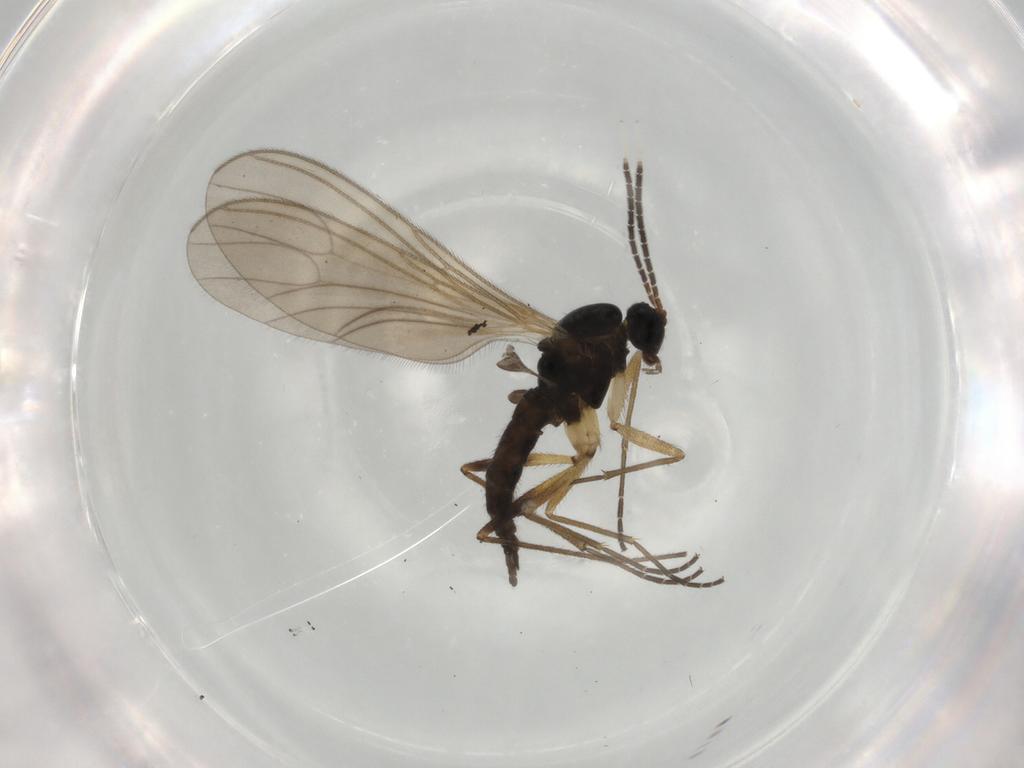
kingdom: Animalia
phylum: Arthropoda
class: Insecta
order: Diptera
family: Sciaridae
